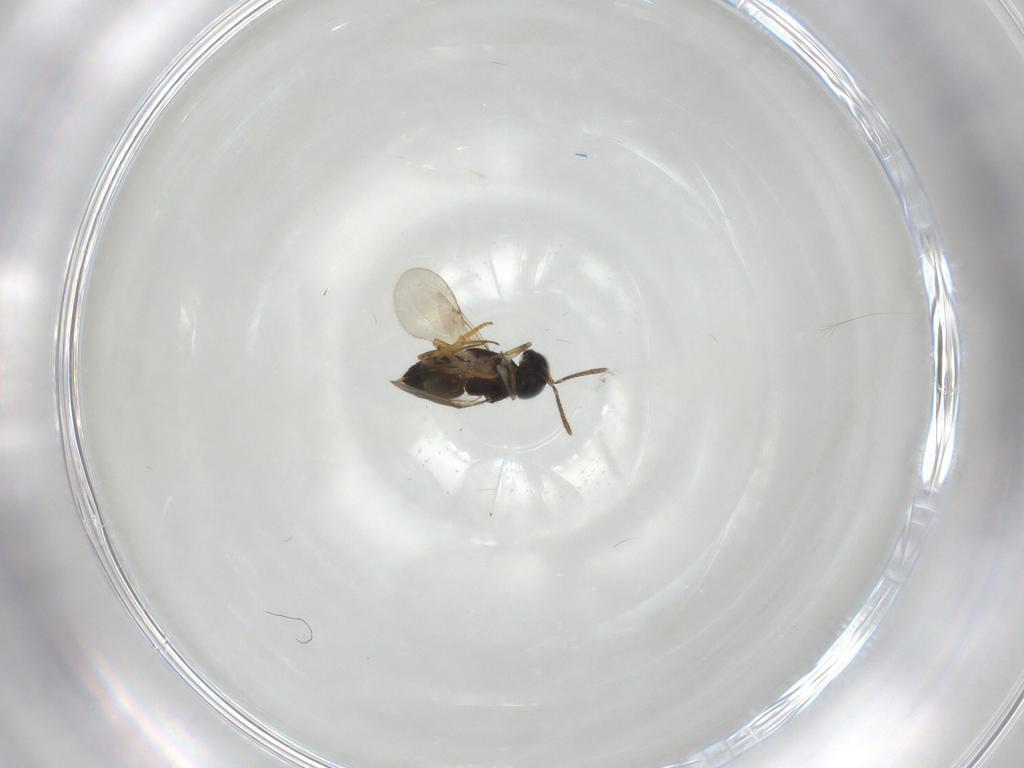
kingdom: Animalia
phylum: Arthropoda
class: Insecta
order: Hymenoptera
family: Encyrtidae
